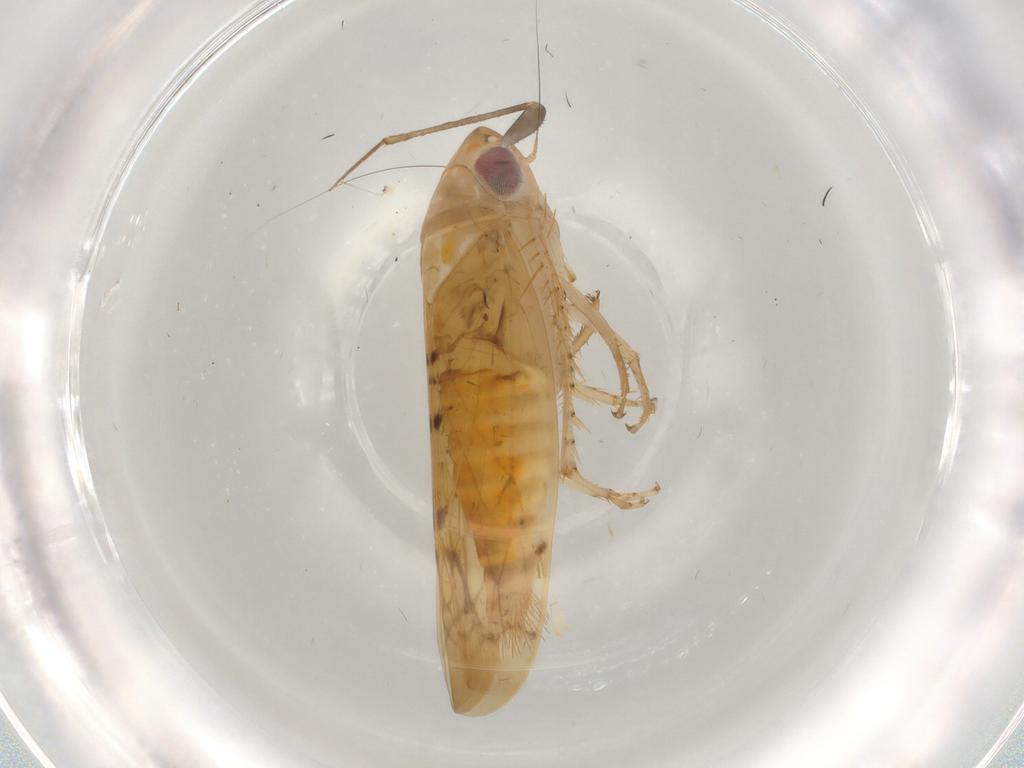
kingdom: Animalia
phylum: Arthropoda
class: Insecta
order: Hemiptera
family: Cicadellidae
